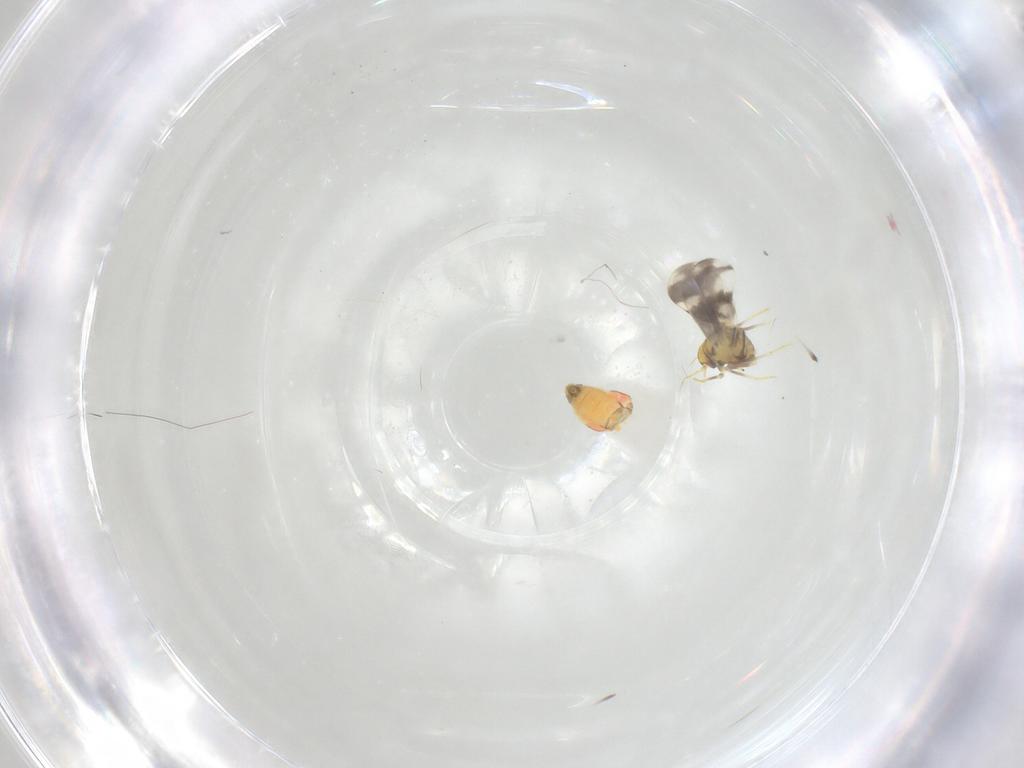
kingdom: Animalia
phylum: Arthropoda
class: Insecta
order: Hemiptera
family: Aleyrodidae
